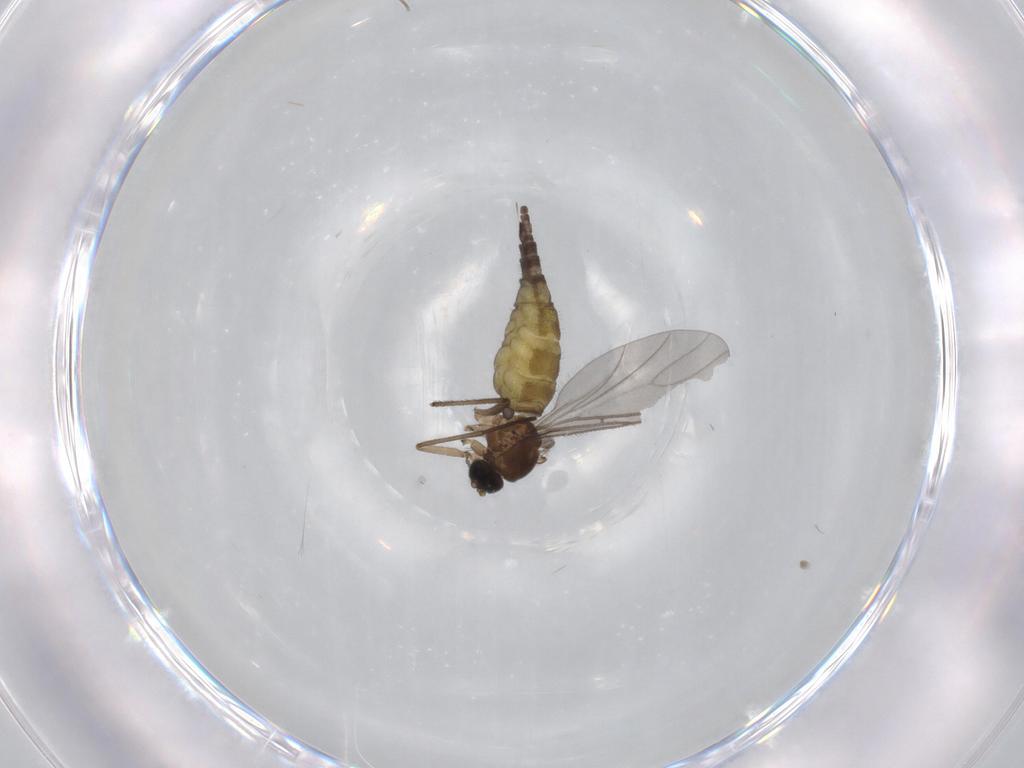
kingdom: Animalia
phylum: Arthropoda
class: Insecta
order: Diptera
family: Sciaridae
